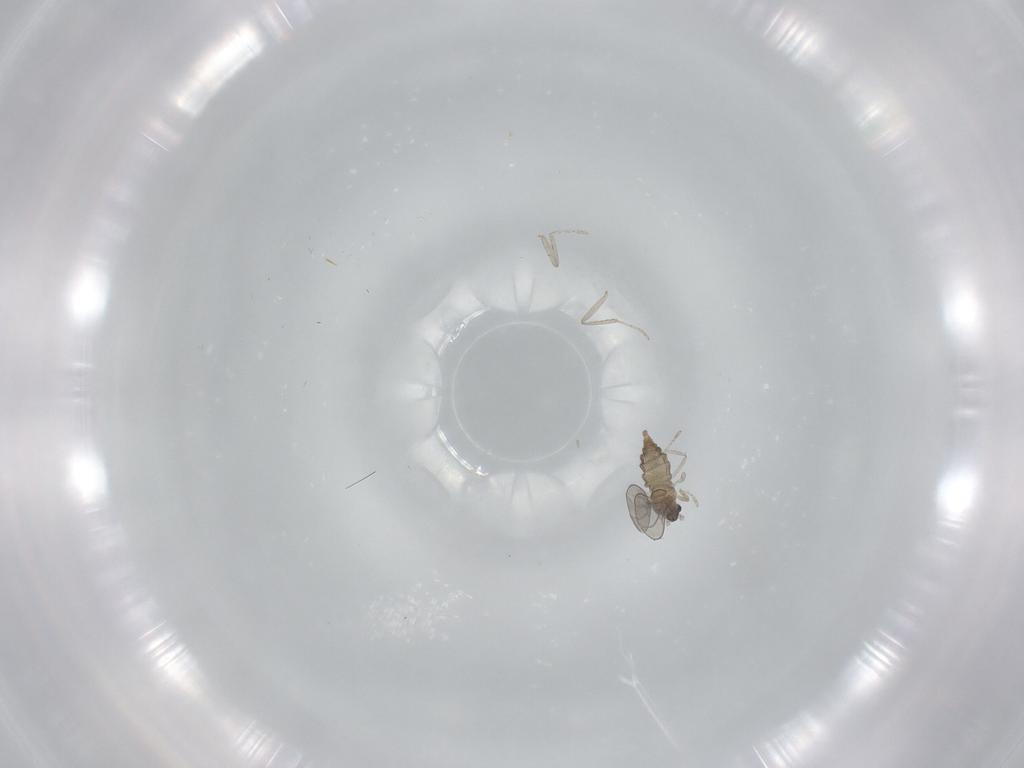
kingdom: Animalia
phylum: Arthropoda
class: Insecta
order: Diptera
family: Cecidomyiidae
